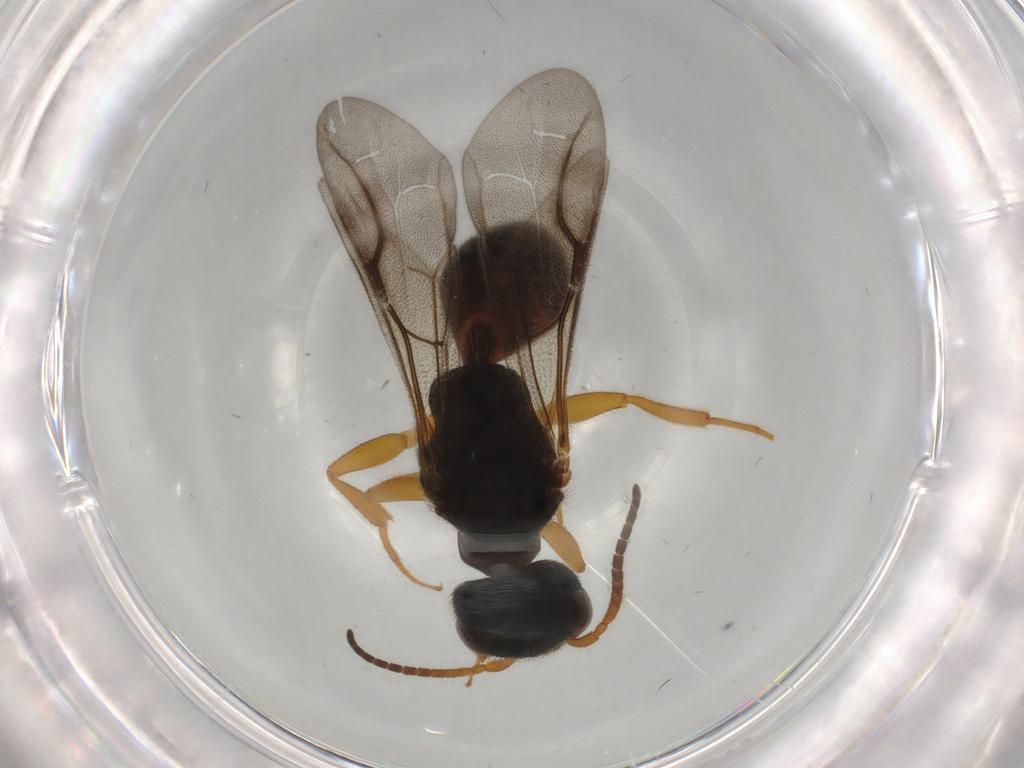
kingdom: Animalia
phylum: Arthropoda
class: Insecta
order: Hymenoptera
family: Bethylidae
